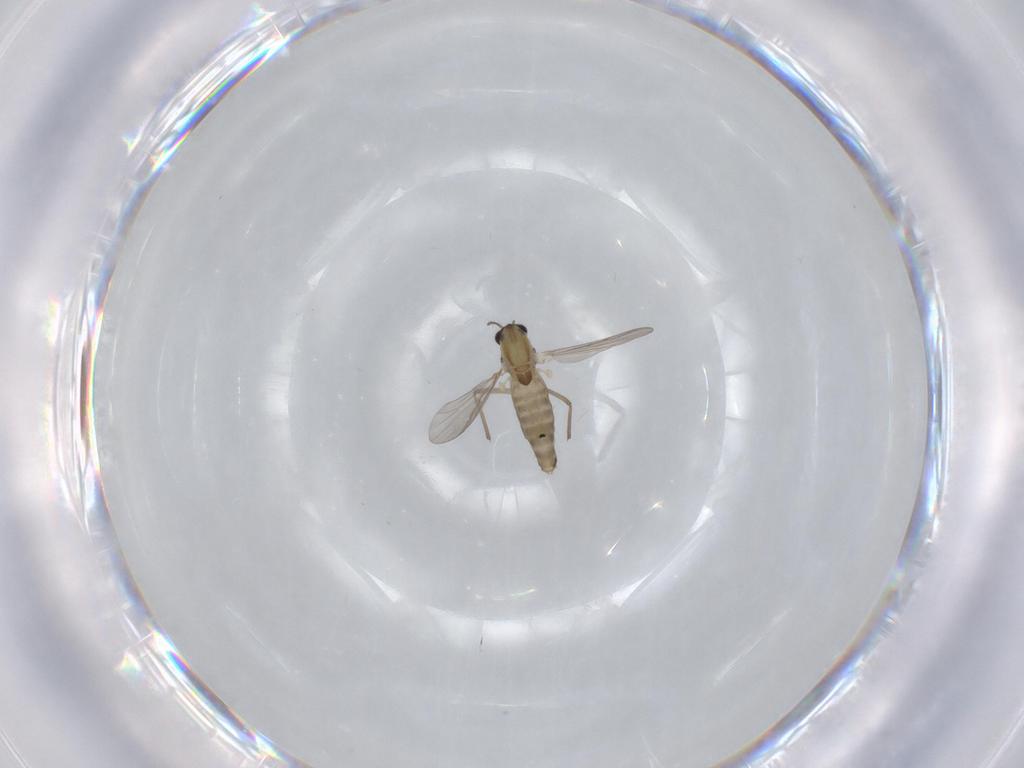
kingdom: Animalia
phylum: Arthropoda
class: Insecta
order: Diptera
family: Chironomidae
